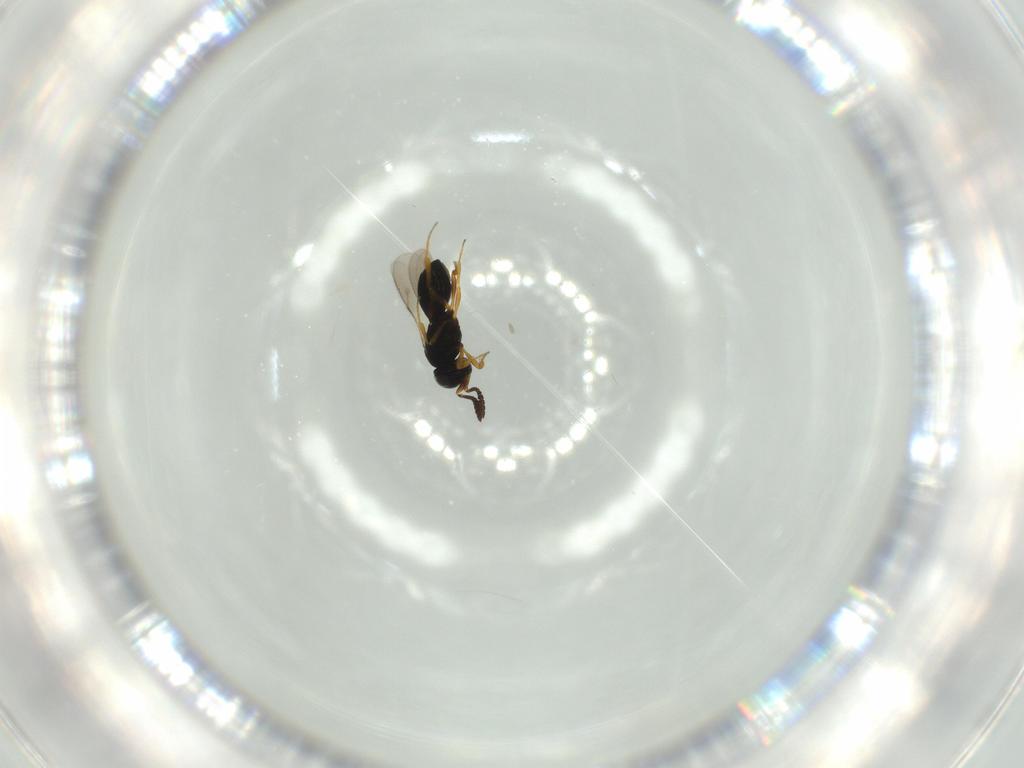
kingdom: Animalia
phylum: Arthropoda
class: Insecta
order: Hymenoptera
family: Scelionidae
